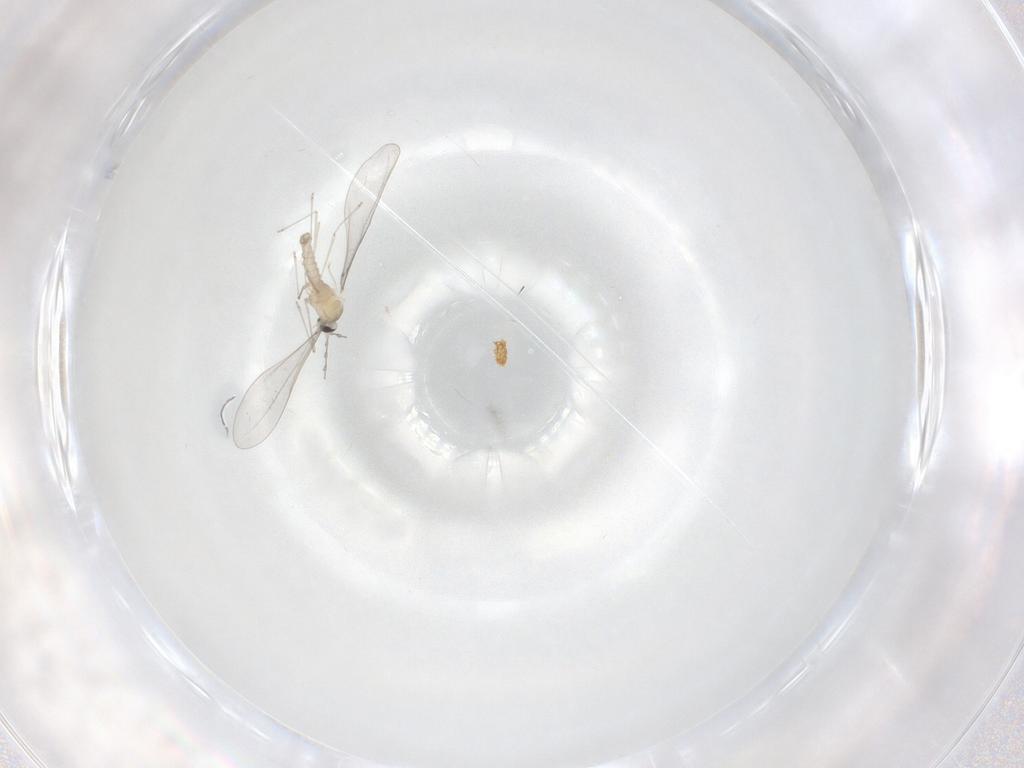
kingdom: Animalia
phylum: Arthropoda
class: Insecta
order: Diptera
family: Cecidomyiidae
